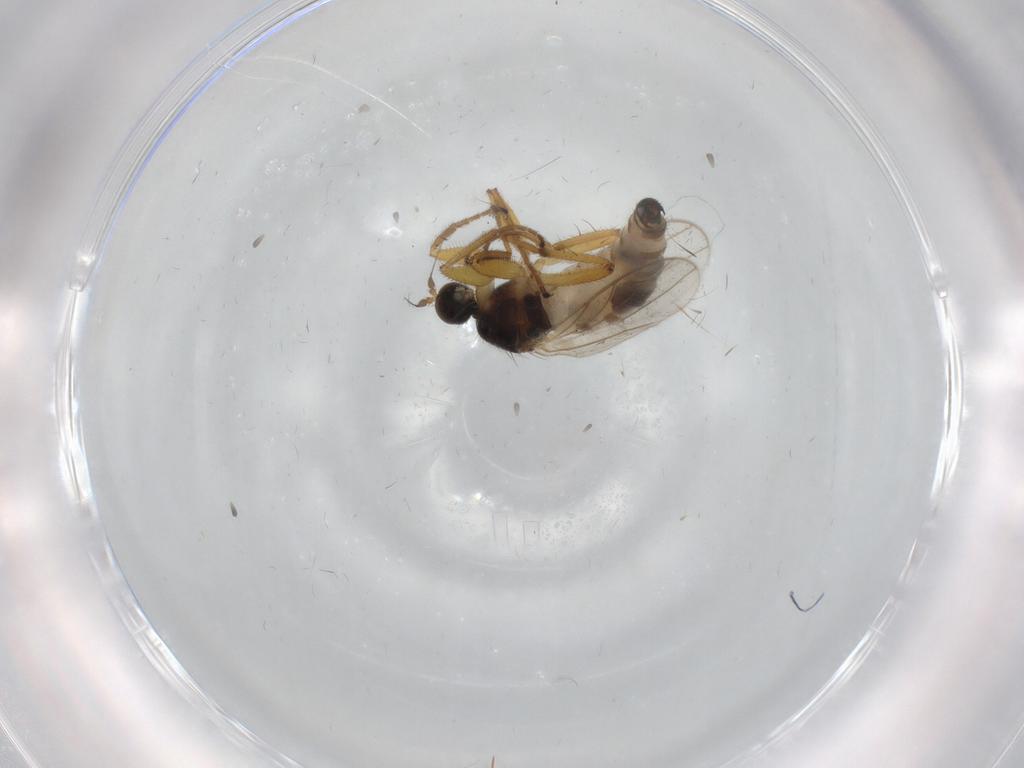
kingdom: Animalia
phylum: Arthropoda
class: Insecta
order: Diptera
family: Hybotidae
